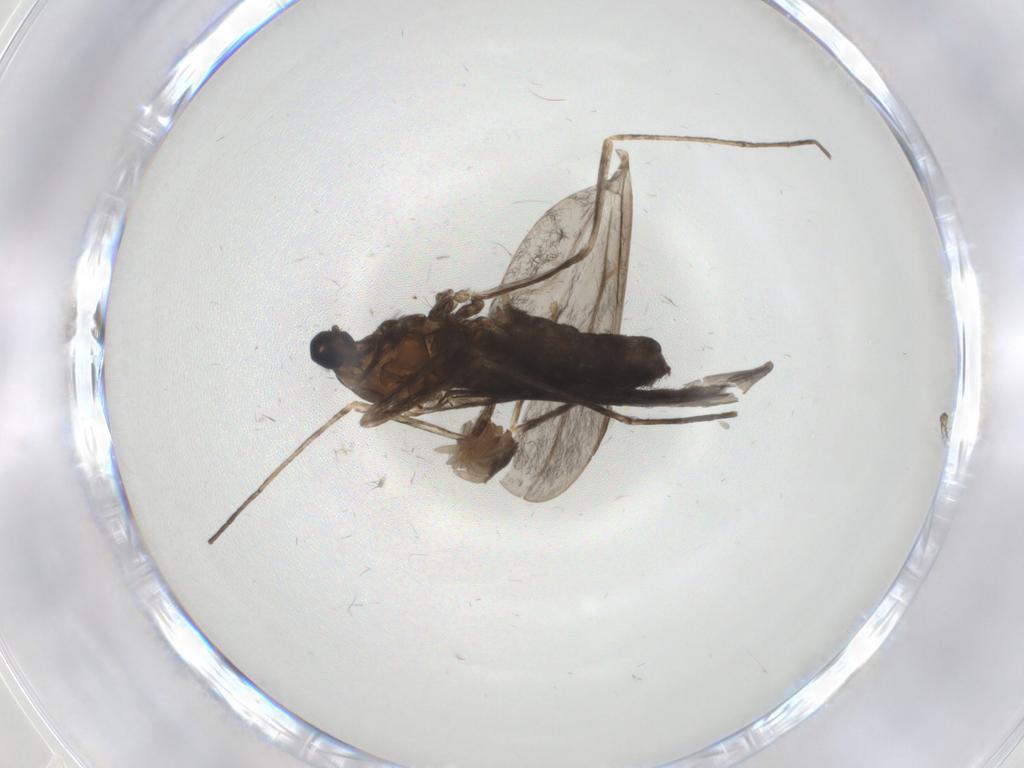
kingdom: Animalia
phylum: Arthropoda
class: Insecta
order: Diptera
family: Cecidomyiidae
